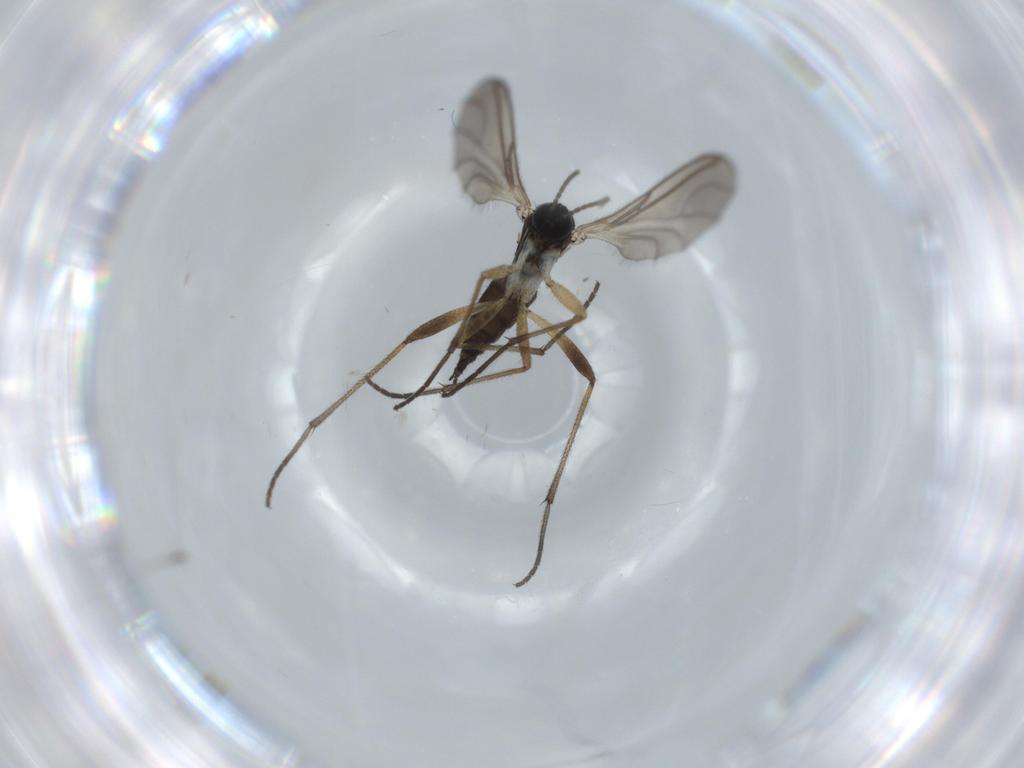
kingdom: Animalia
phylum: Arthropoda
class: Insecta
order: Diptera
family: Sciaridae
